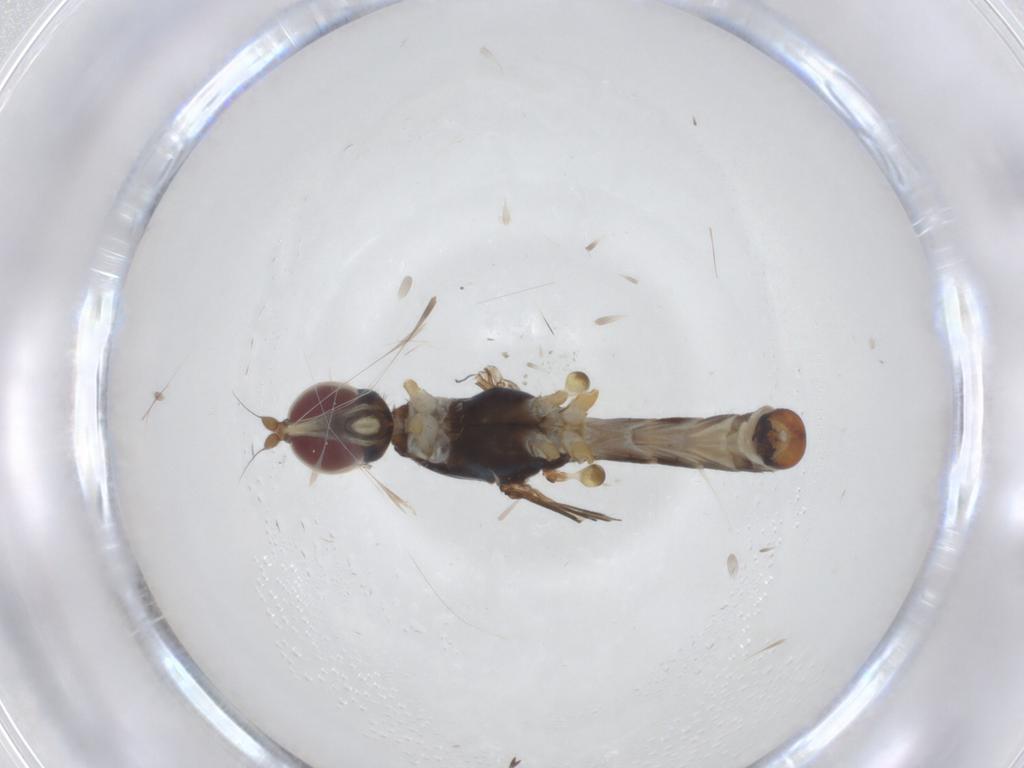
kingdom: Animalia
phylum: Arthropoda
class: Insecta
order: Diptera
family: Micropezidae
